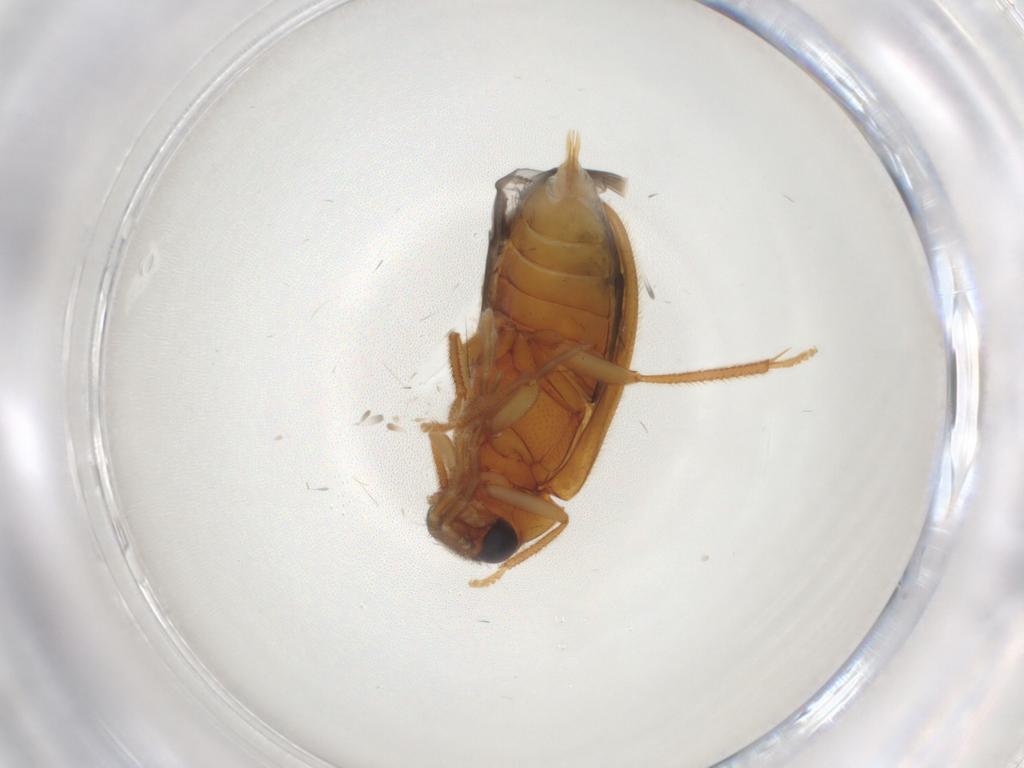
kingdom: Animalia
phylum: Arthropoda
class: Insecta
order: Coleoptera
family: Ptilodactylidae
